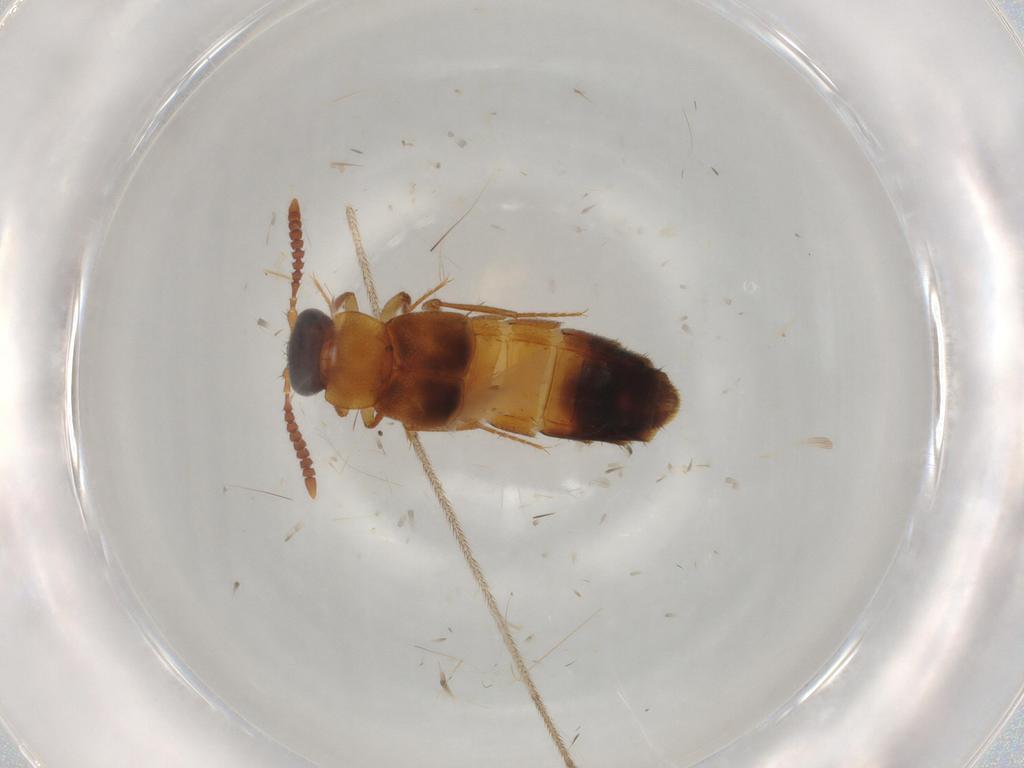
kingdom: Animalia
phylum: Arthropoda
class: Insecta
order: Coleoptera
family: Staphylinidae
